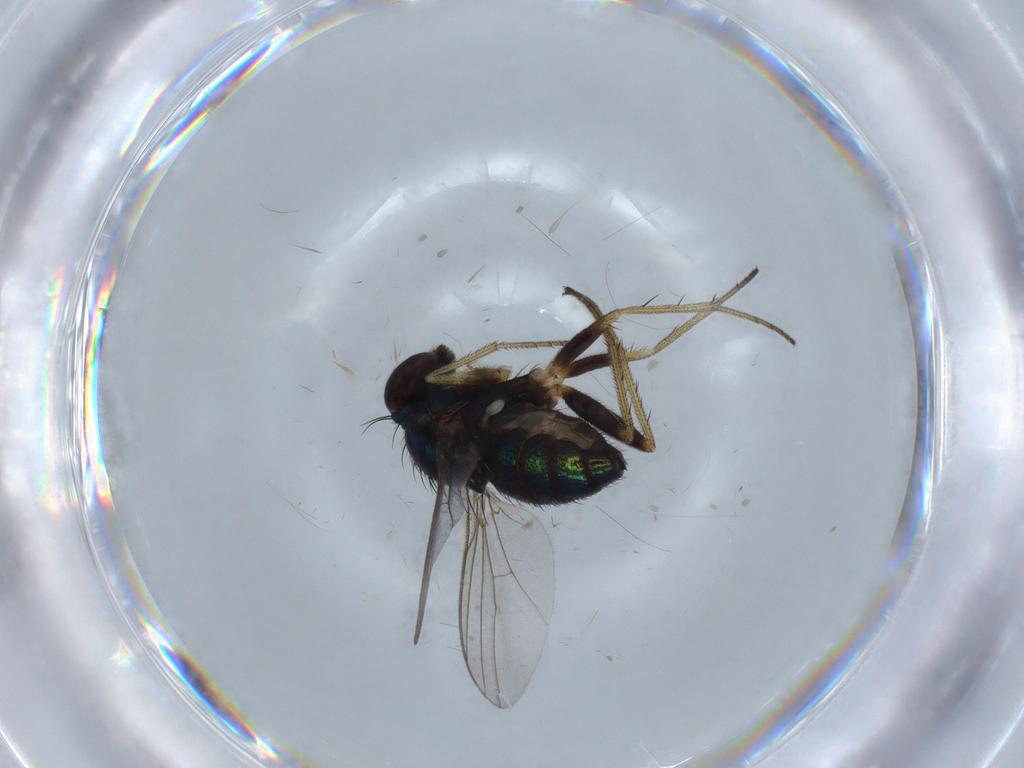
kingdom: Animalia
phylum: Arthropoda
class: Insecta
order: Diptera
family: Dolichopodidae
